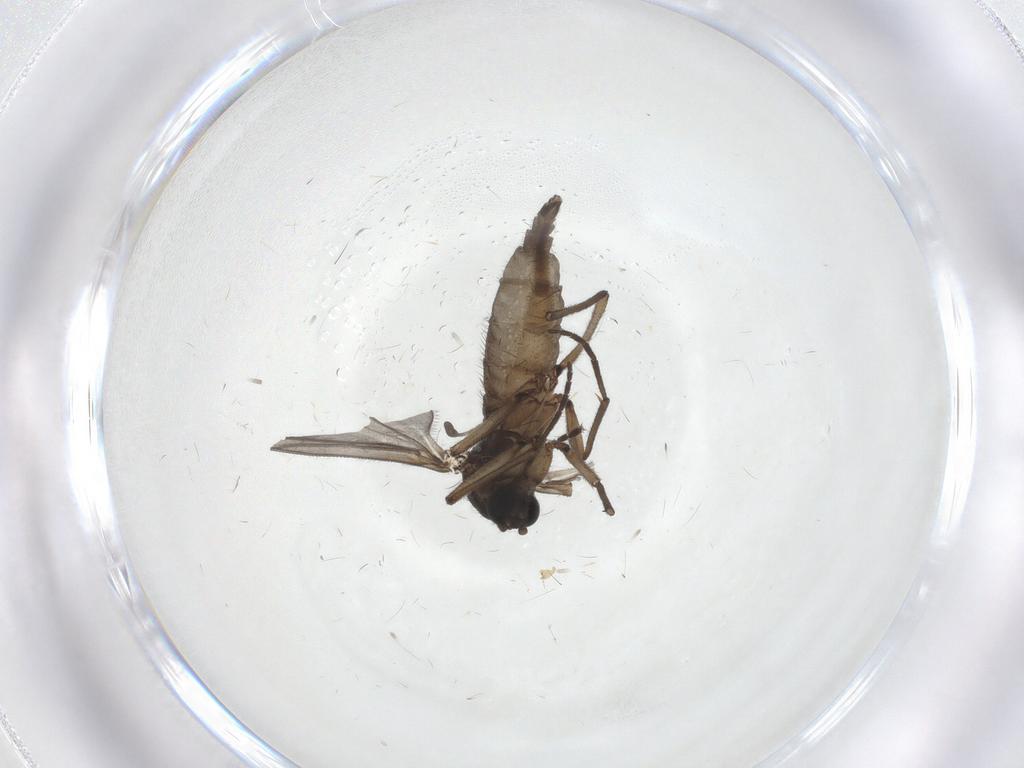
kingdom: Animalia
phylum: Arthropoda
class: Insecta
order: Diptera
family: Sciaridae
